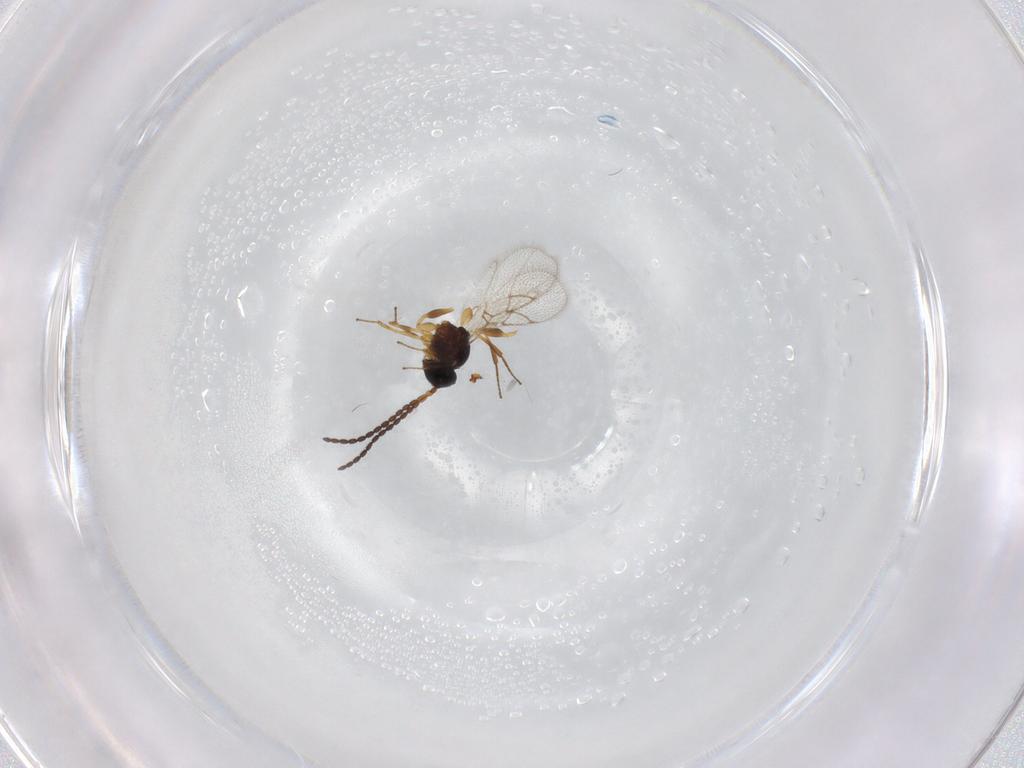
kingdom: Animalia
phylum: Arthropoda
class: Insecta
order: Hymenoptera
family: Figitidae
